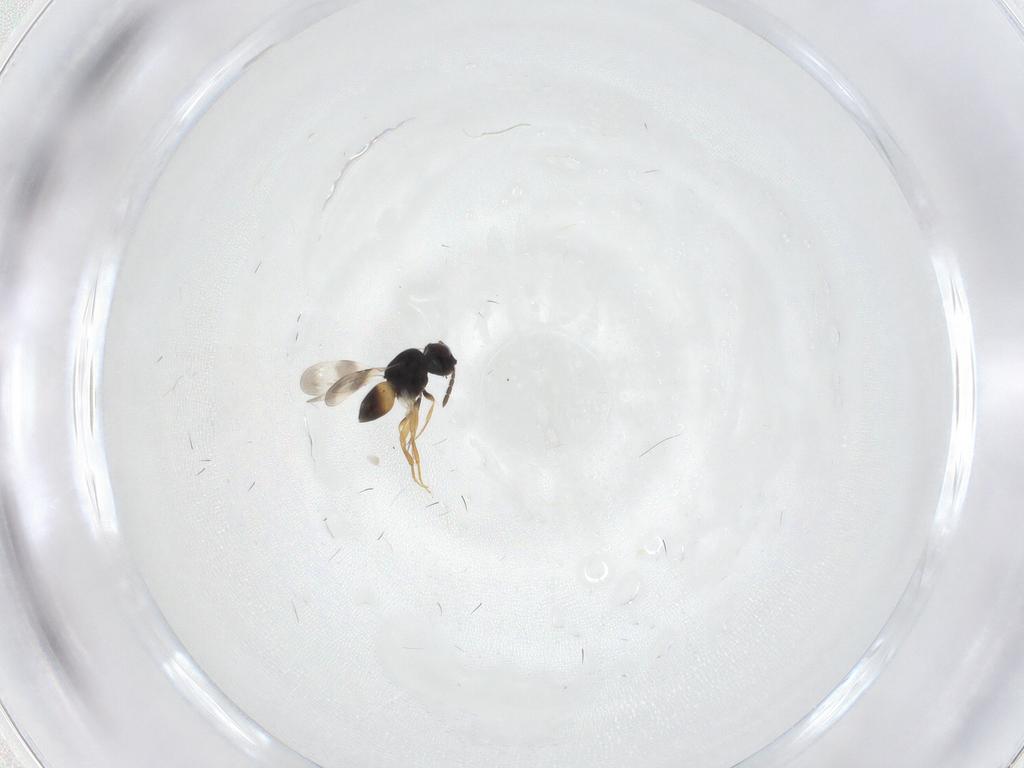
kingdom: Animalia
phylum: Arthropoda
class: Insecta
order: Hymenoptera
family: Ceraphronidae
